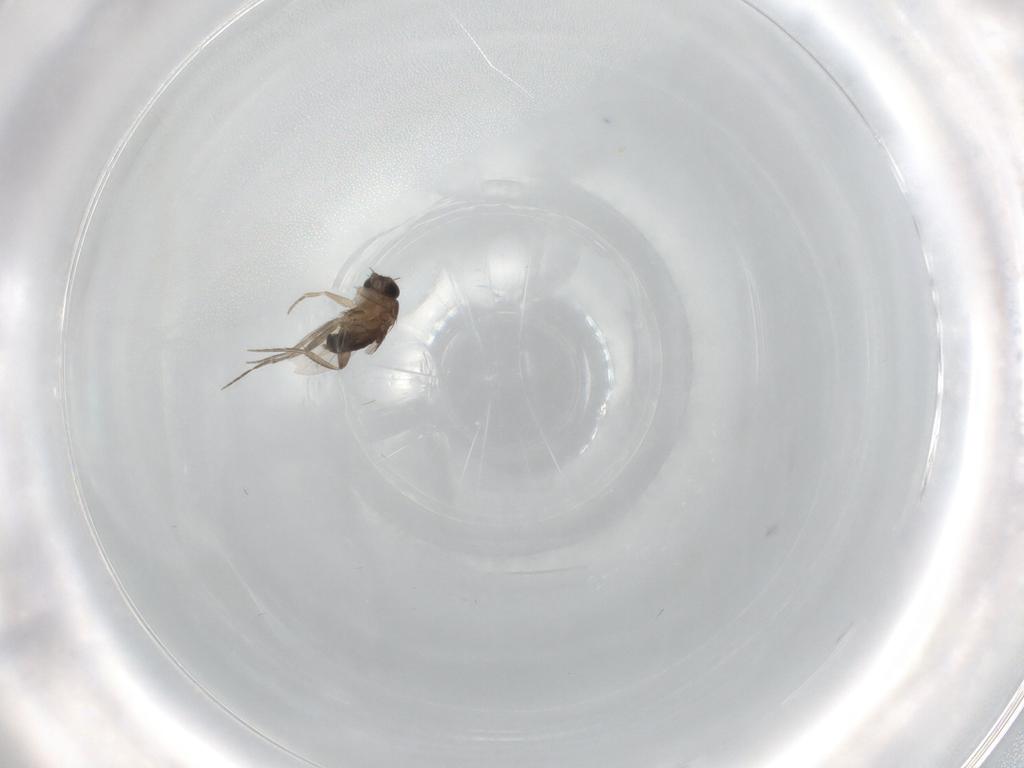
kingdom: Animalia
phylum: Arthropoda
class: Insecta
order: Diptera
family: Phoridae
